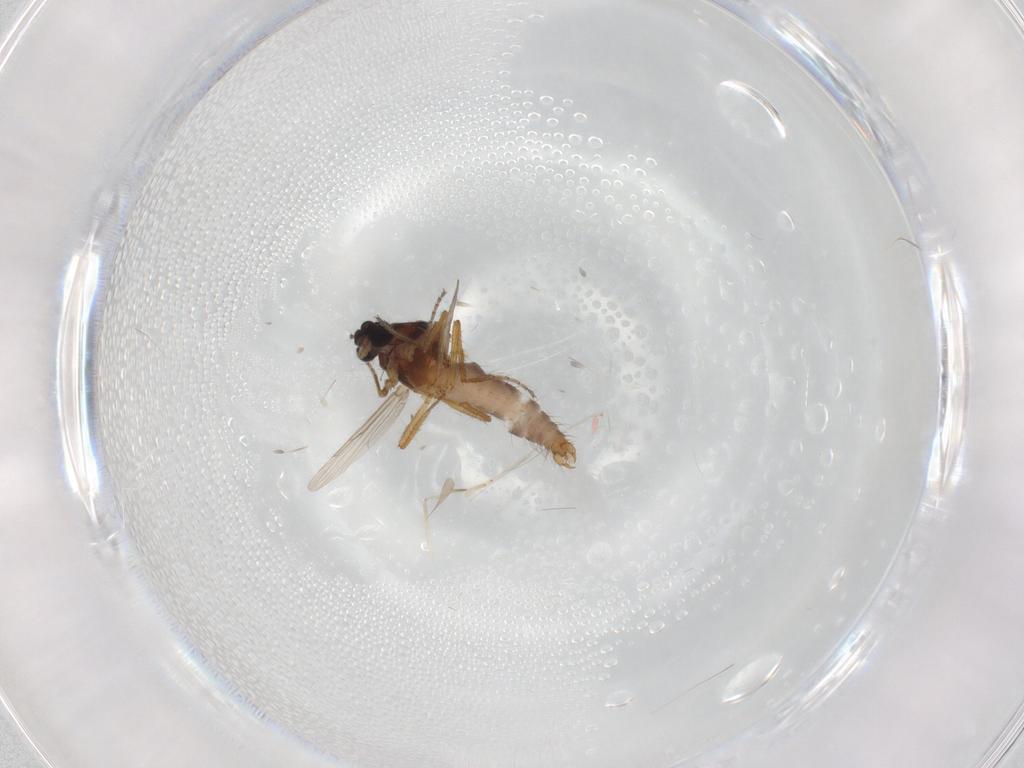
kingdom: Animalia
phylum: Arthropoda
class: Insecta
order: Diptera
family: Ceratopogonidae
